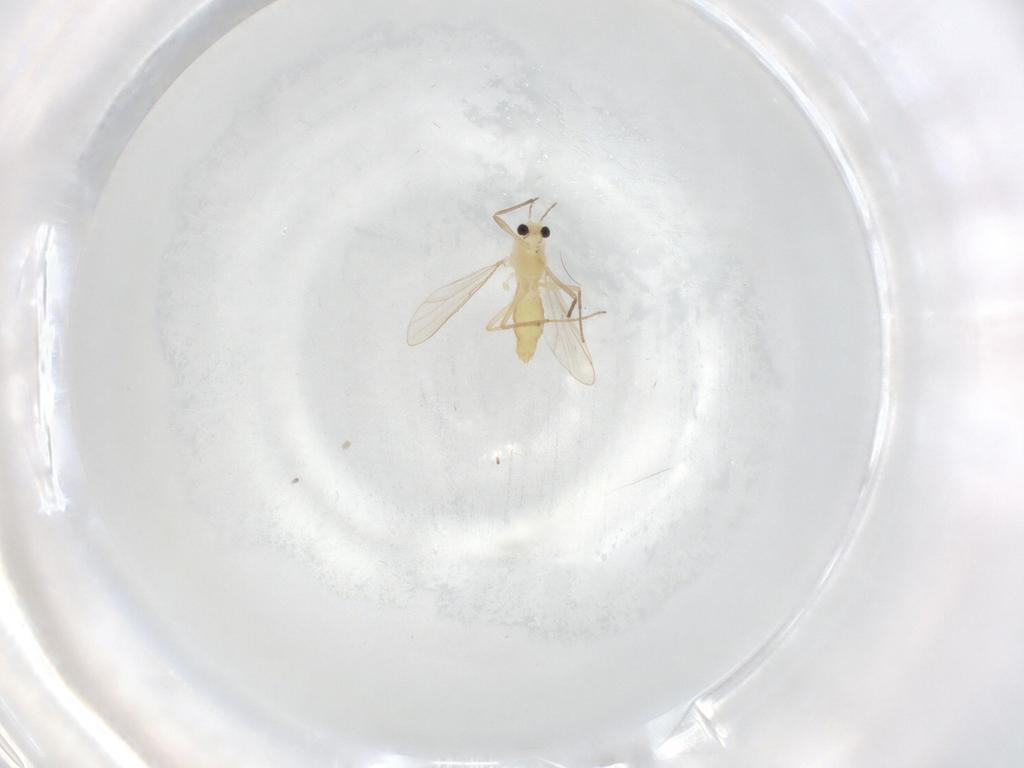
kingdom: Animalia
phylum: Arthropoda
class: Insecta
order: Diptera
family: Chironomidae
